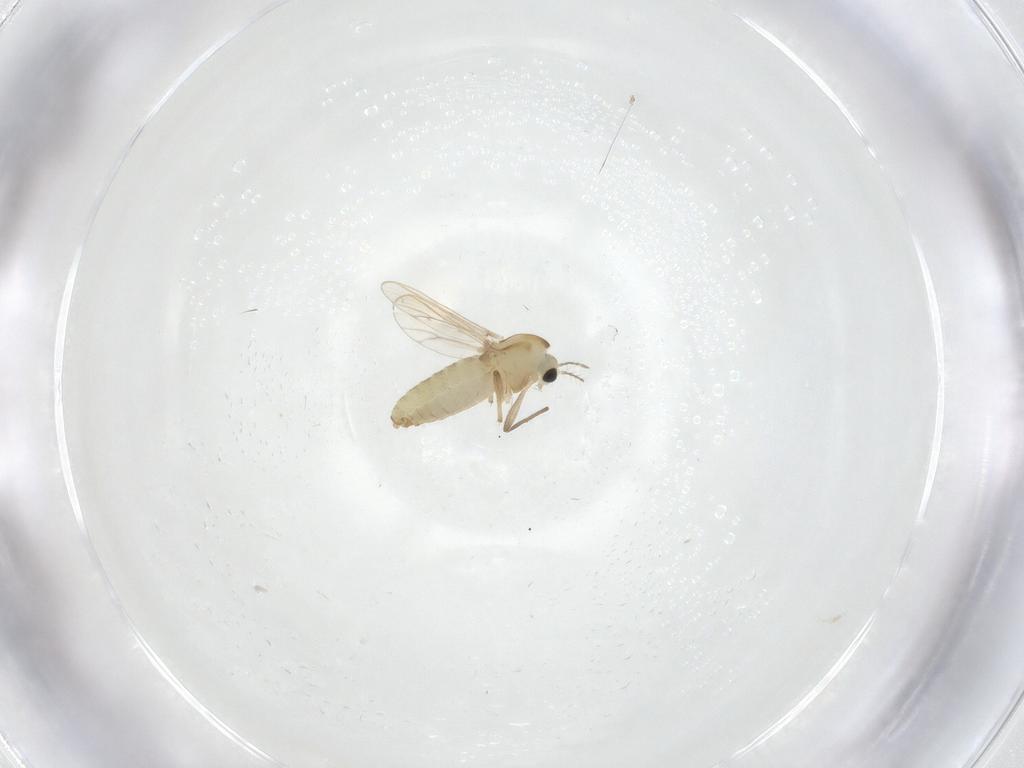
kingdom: Animalia
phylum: Arthropoda
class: Insecta
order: Diptera
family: Chironomidae
